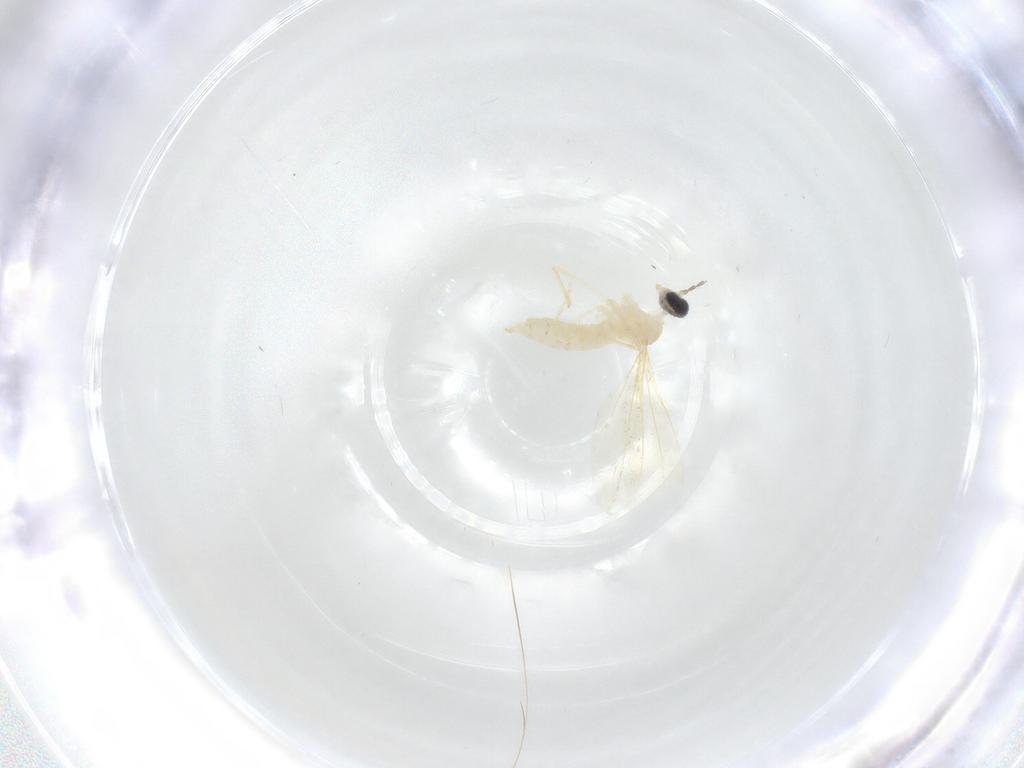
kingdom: Animalia
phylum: Arthropoda
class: Insecta
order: Diptera
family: Cecidomyiidae
